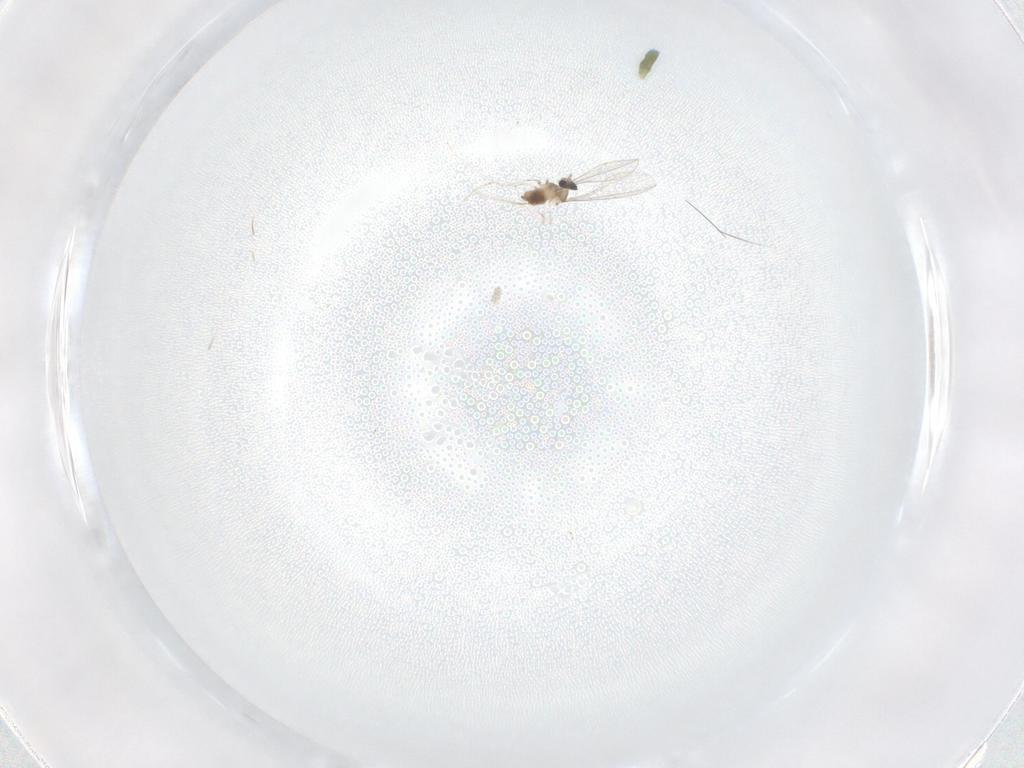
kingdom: Animalia
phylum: Arthropoda
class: Insecta
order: Diptera
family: Cecidomyiidae
